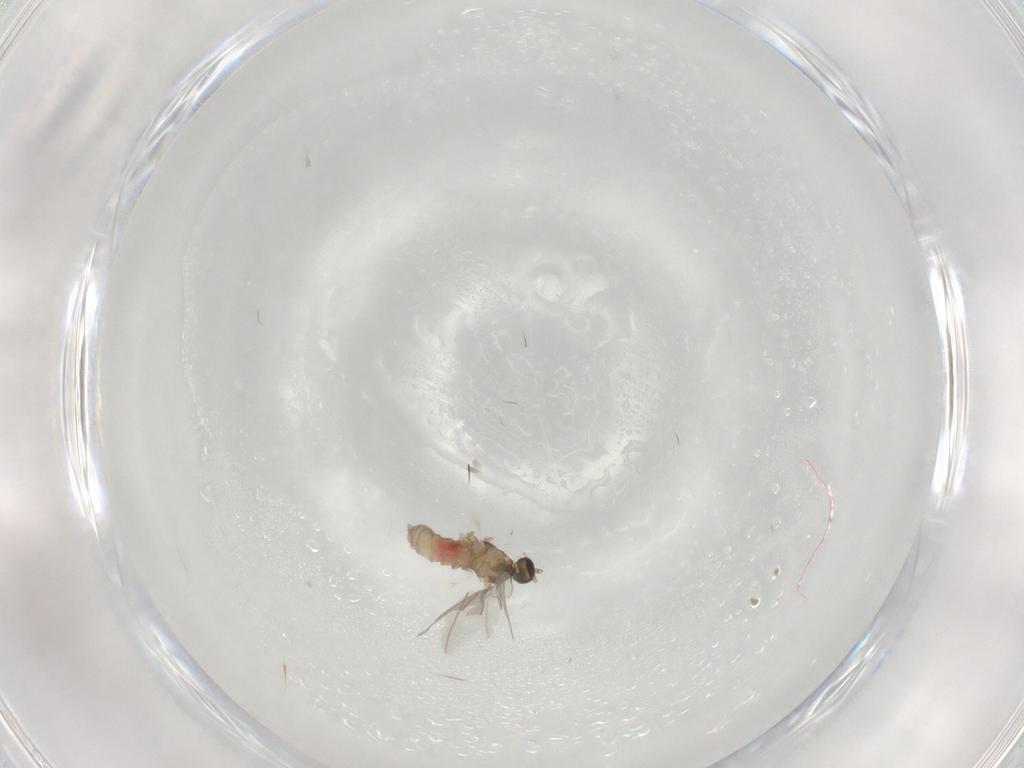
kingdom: Animalia
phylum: Arthropoda
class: Insecta
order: Diptera
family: Cecidomyiidae
